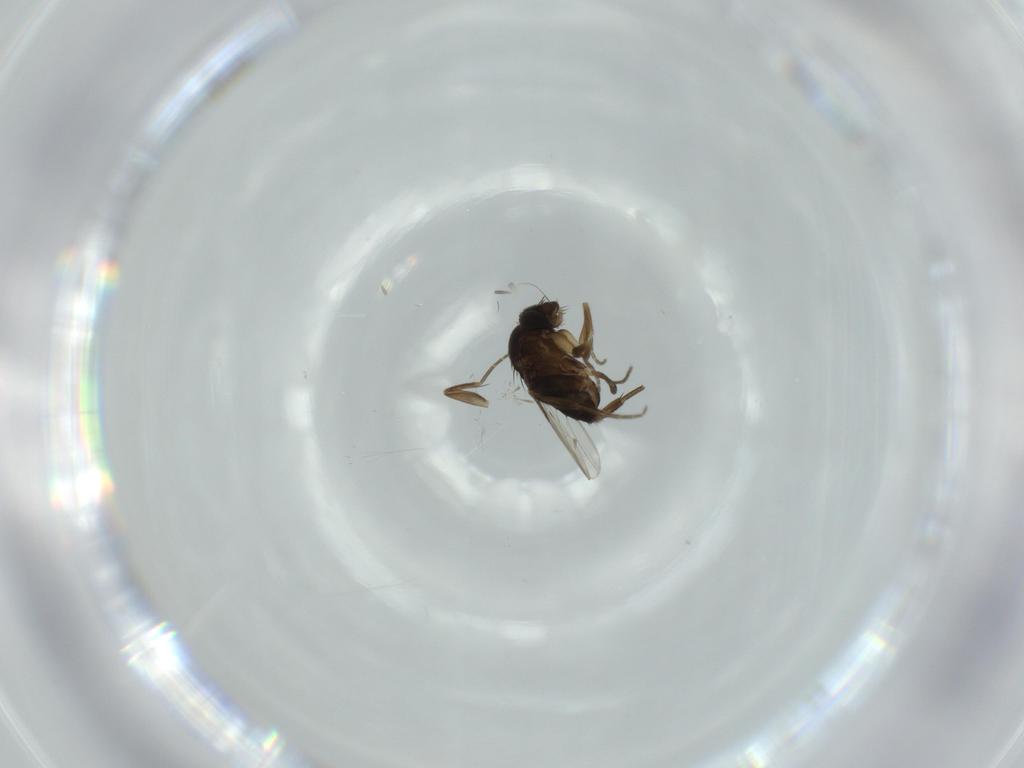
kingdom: Animalia
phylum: Arthropoda
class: Insecta
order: Diptera
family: Phoridae
